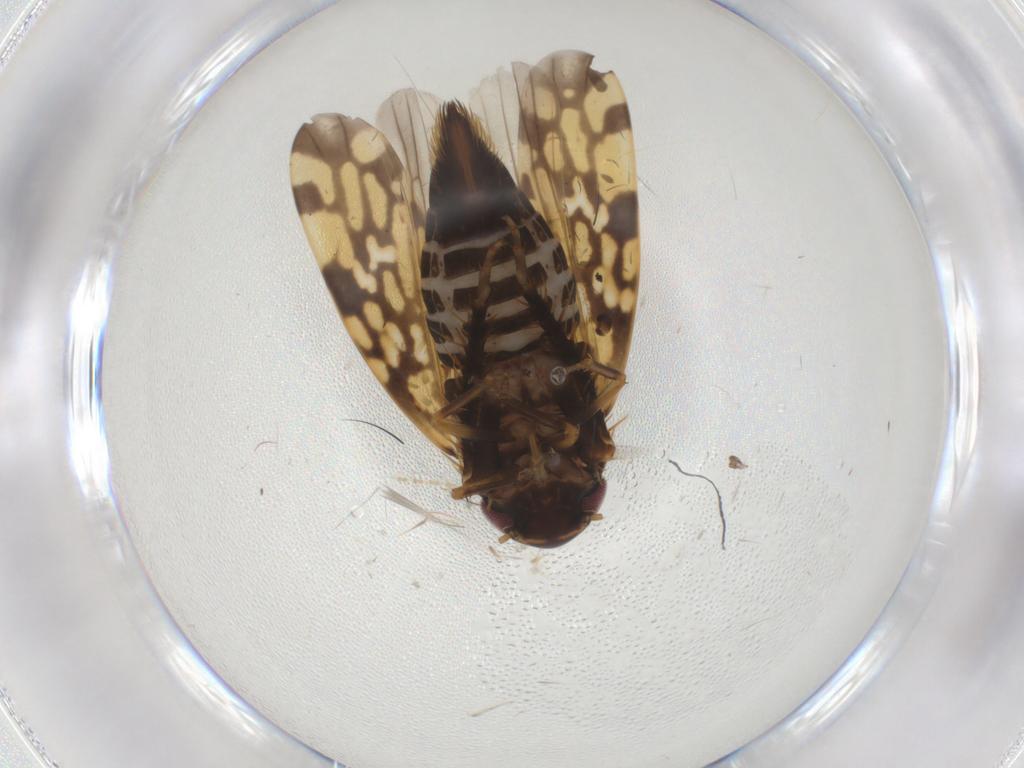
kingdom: Animalia
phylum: Arthropoda
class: Insecta
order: Hemiptera
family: Cicadellidae
